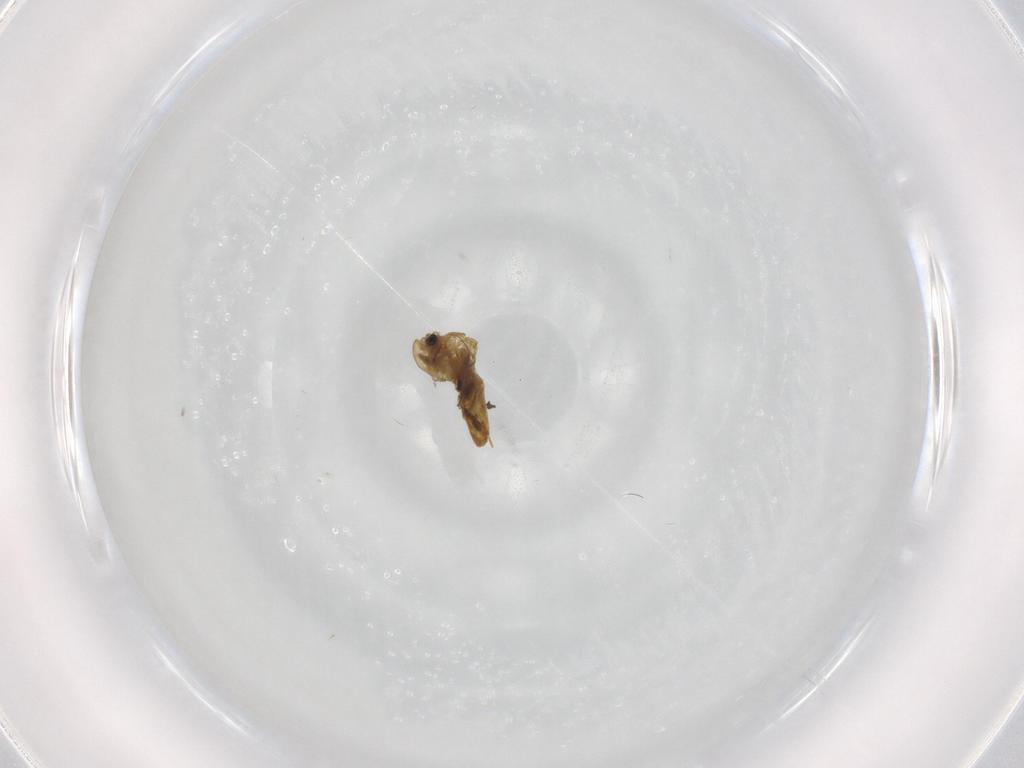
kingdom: Animalia
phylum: Arthropoda
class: Insecta
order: Diptera
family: Chironomidae
